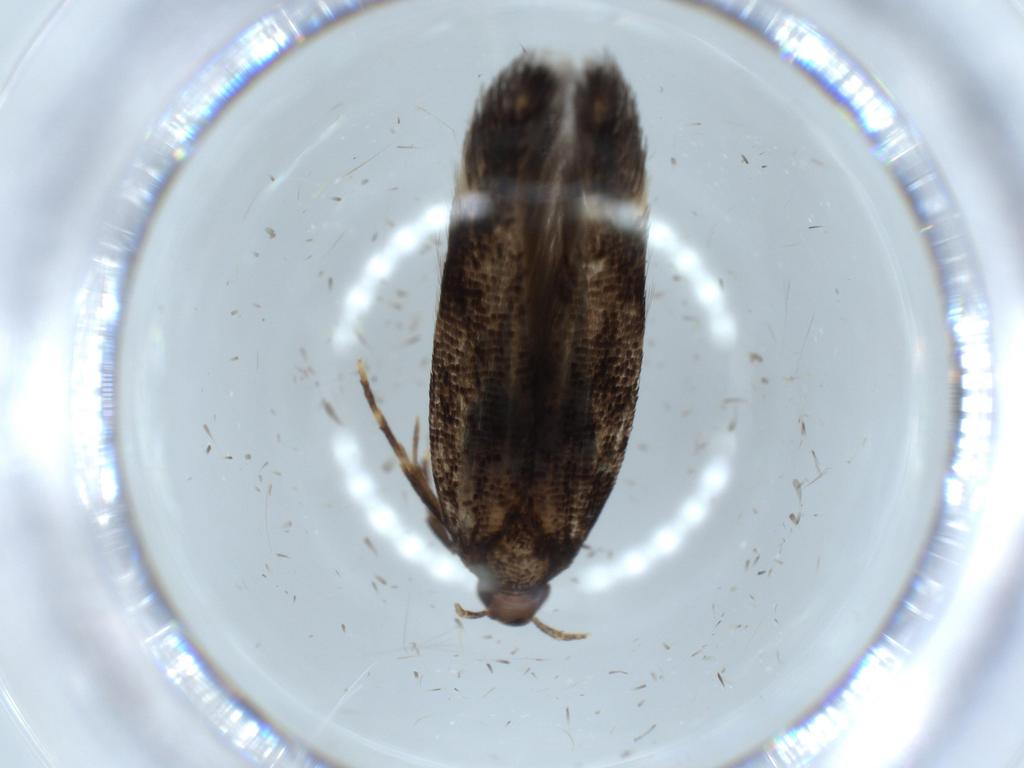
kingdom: Animalia
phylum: Arthropoda
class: Insecta
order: Lepidoptera
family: Cosmopterigidae
